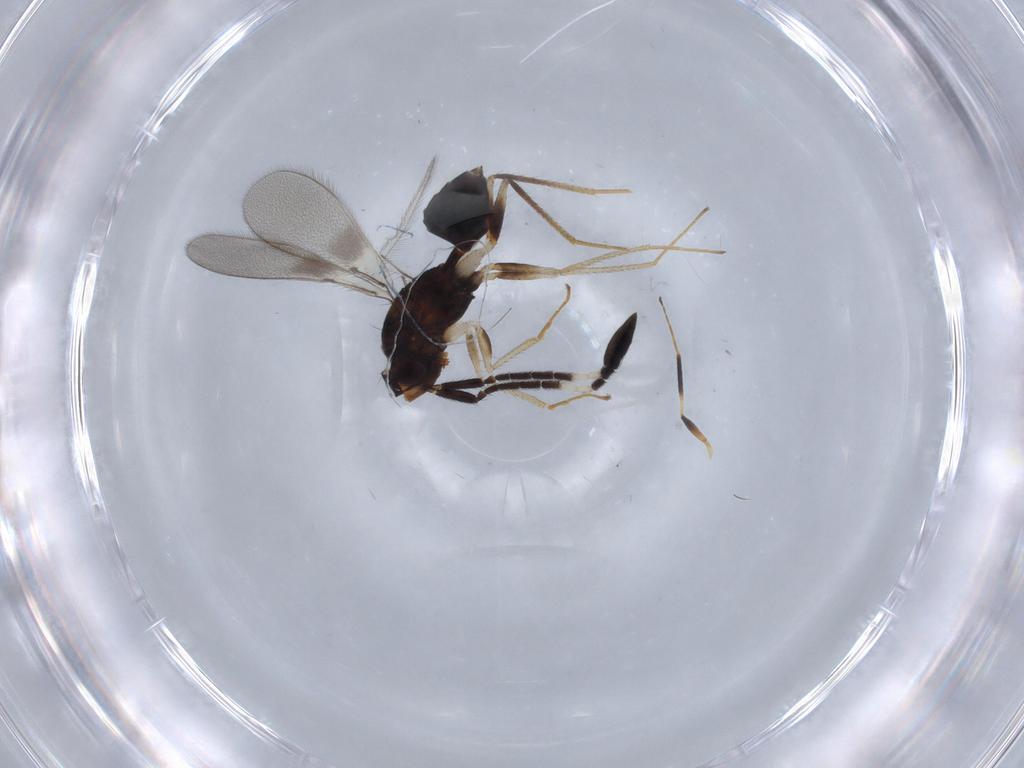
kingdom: Animalia
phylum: Arthropoda
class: Insecta
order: Hymenoptera
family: Mymaridae
